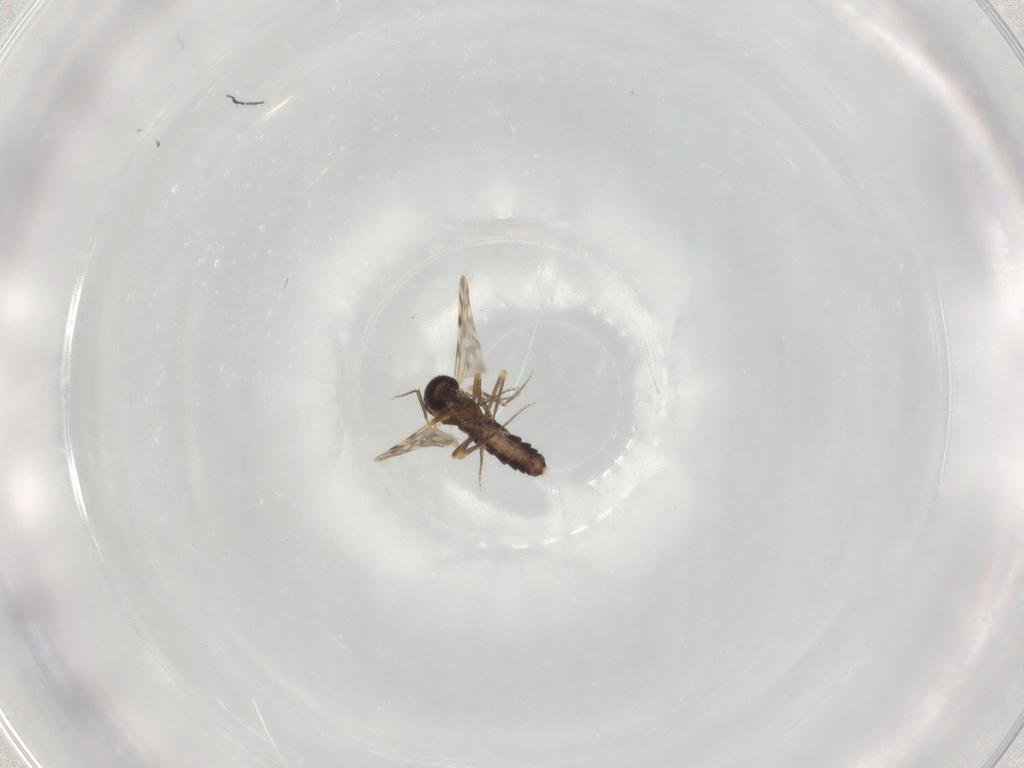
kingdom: Animalia
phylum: Arthropoda
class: Insecta
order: Diptera
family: Ceratopogonidae
